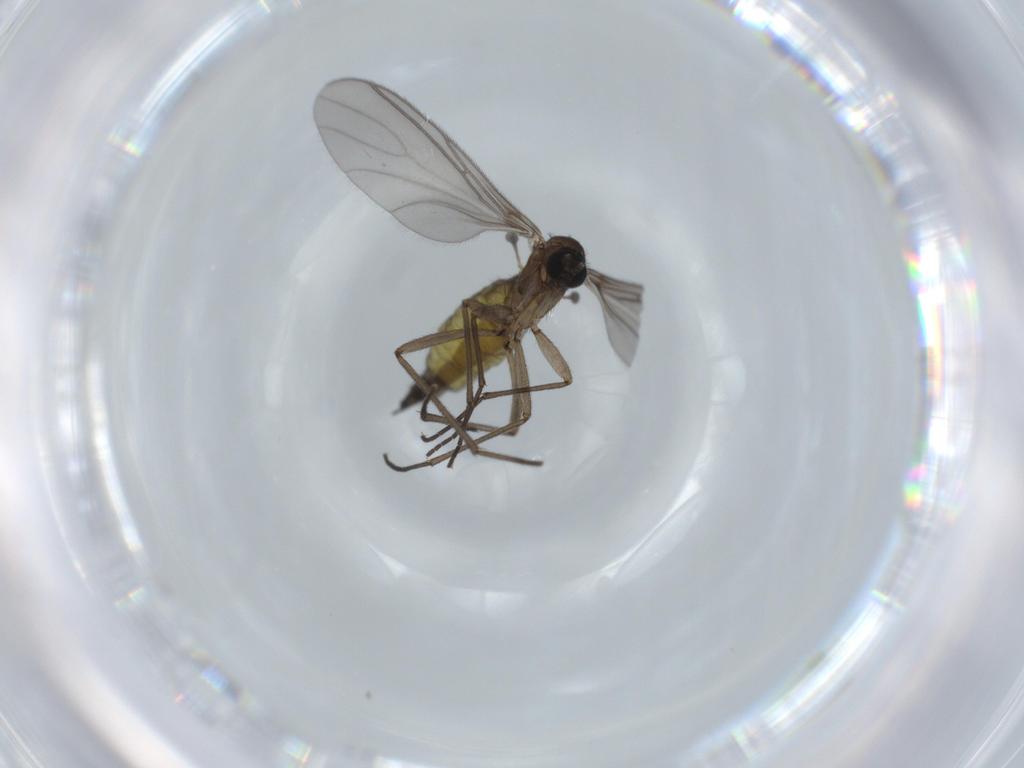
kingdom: Animalia
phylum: Arthropoda
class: Insecta
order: Diptera
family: Sciaridae
